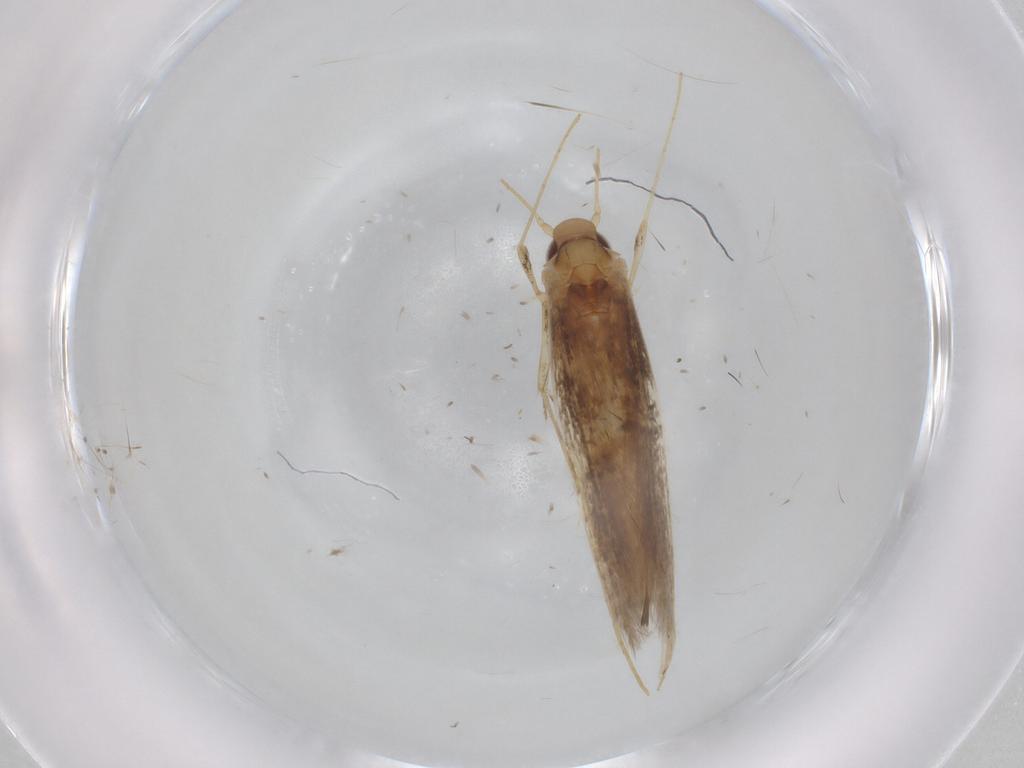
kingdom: Animalia
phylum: Arthropoda
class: Insecta
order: Lepidoptera
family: Gracillariidae
